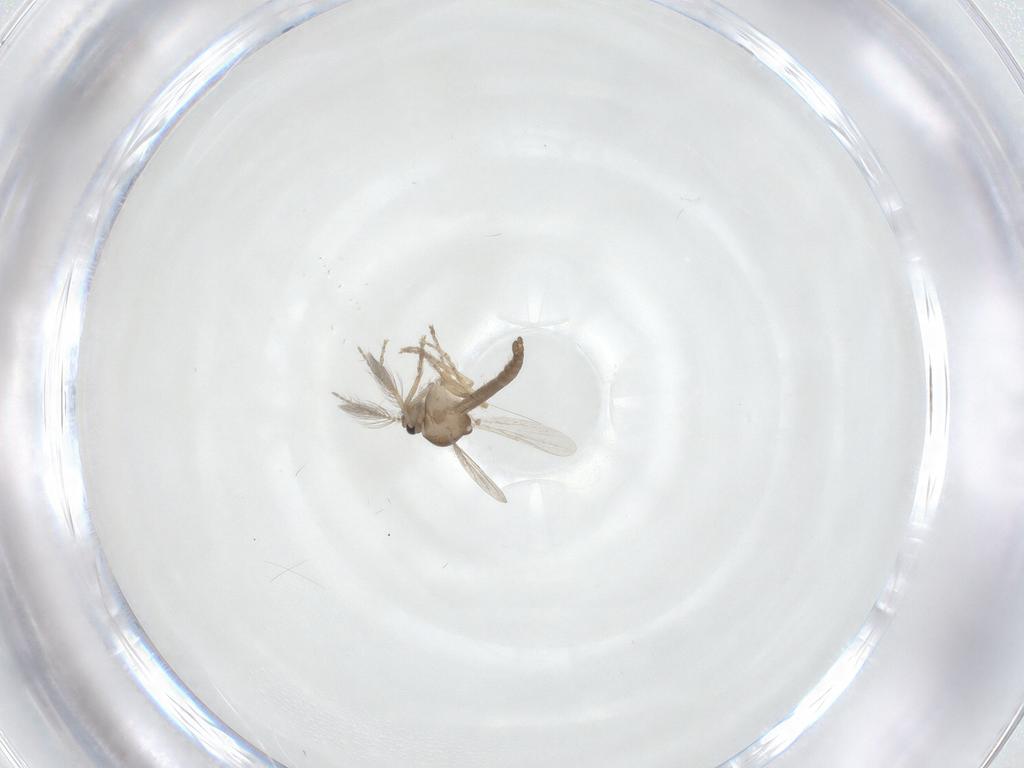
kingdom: Animalia
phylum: Arthropoda
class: Insecta
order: Diptera
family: Ceratopogonidae
